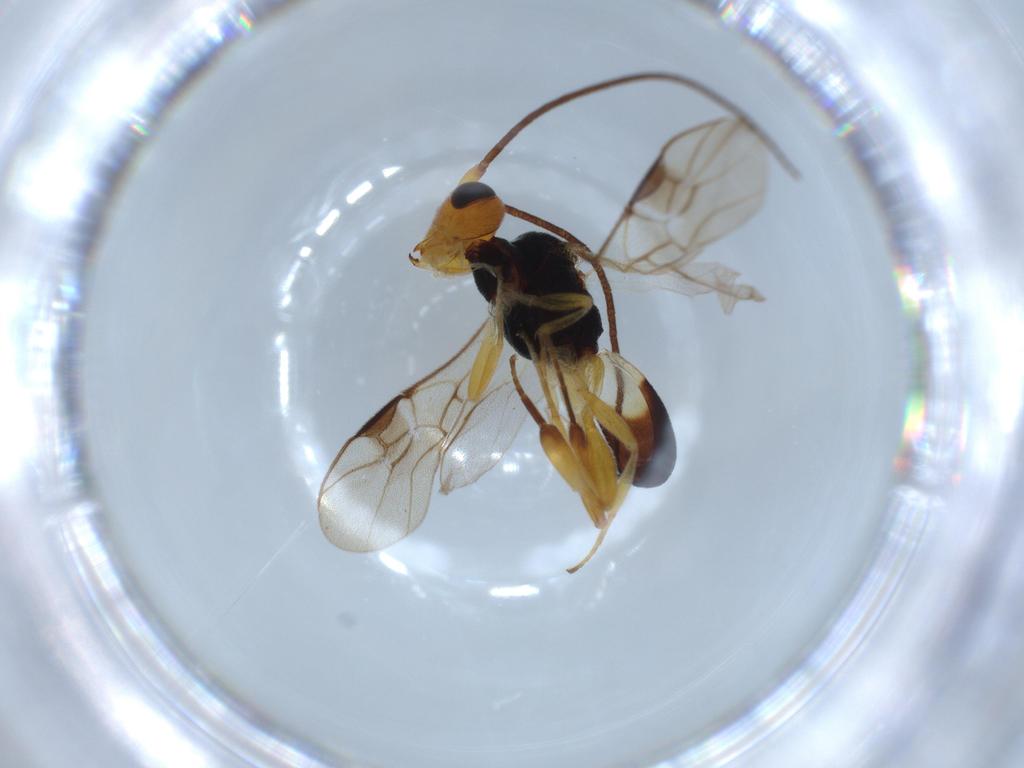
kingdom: Animalia
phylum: Arthropoda
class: Insecta
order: Hymenoptera
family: Braconidae
